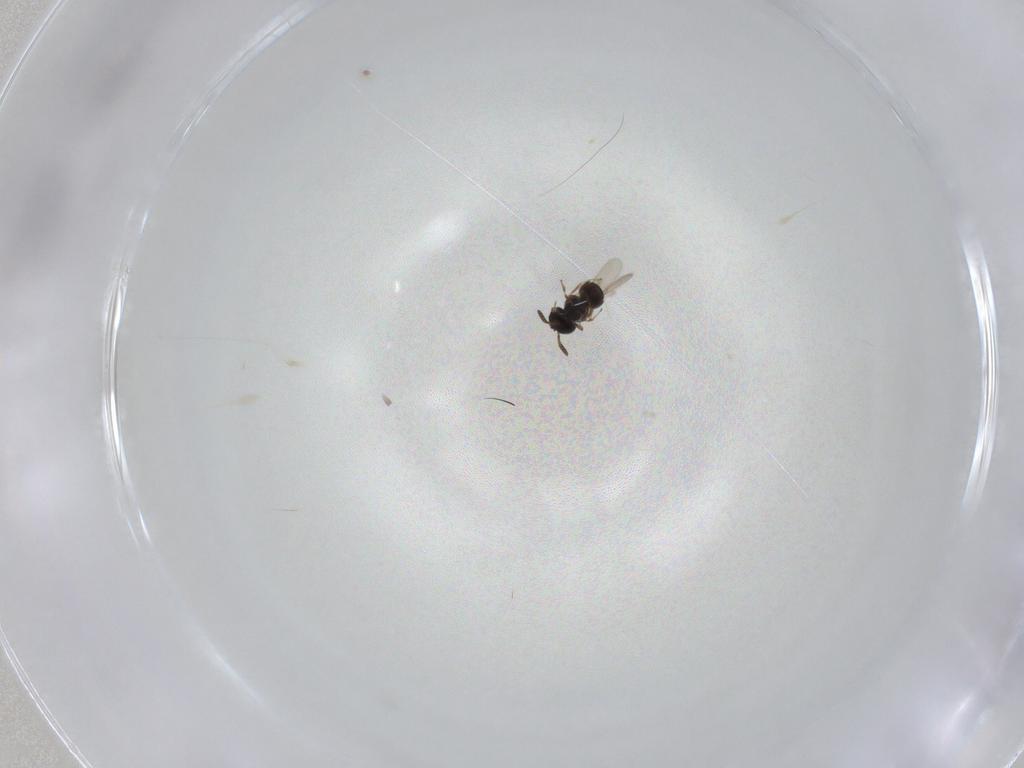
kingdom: Animalia
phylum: Arthropoda
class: Insecta
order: Hymenoptera
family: Scelionidae
